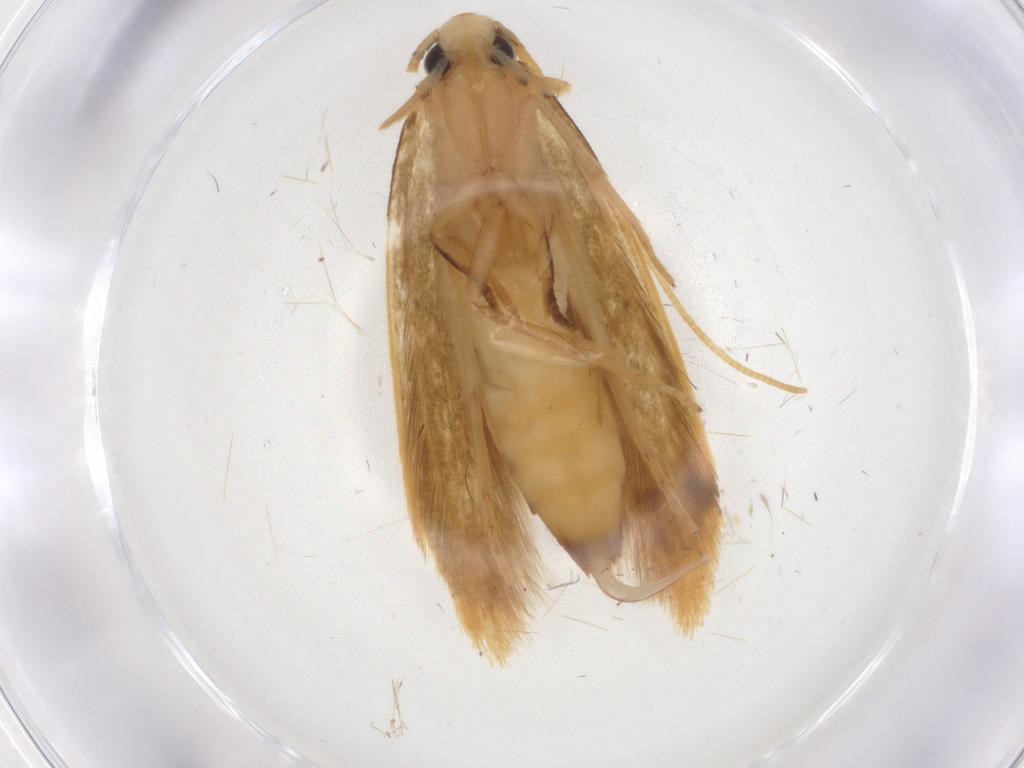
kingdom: Animalia
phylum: Arthropoda
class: Insecta
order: Lepidoptera
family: Tineidae
